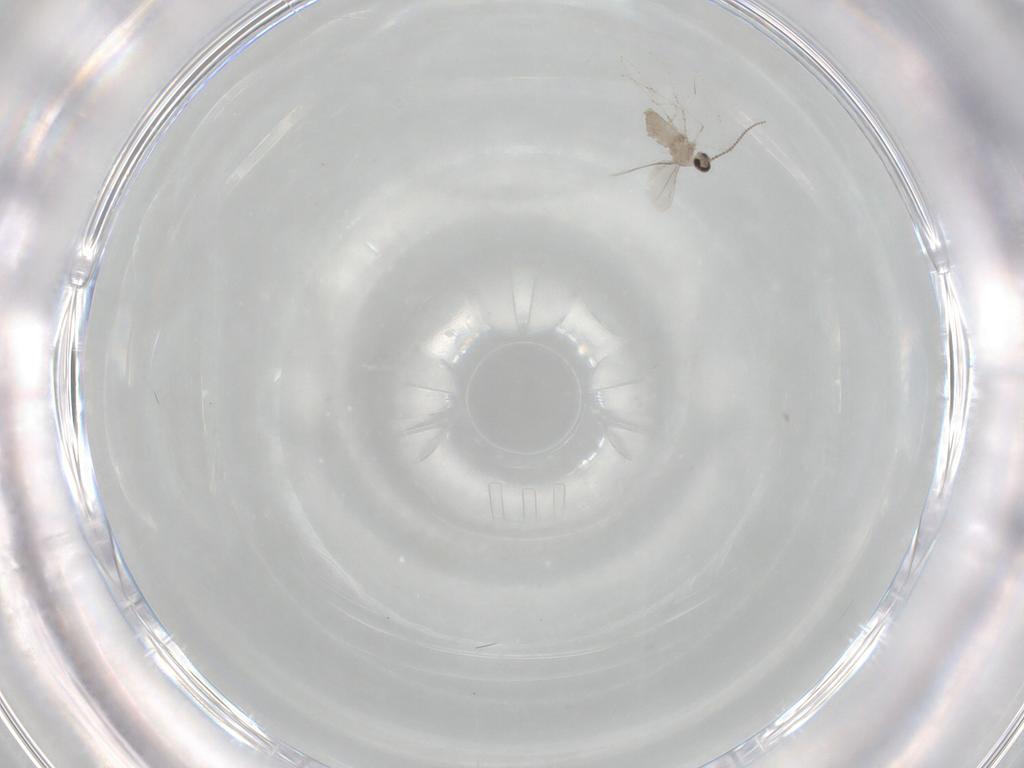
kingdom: Animalia
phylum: Arthropoda
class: Insecta
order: Diptera
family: Cecidomyiidae
